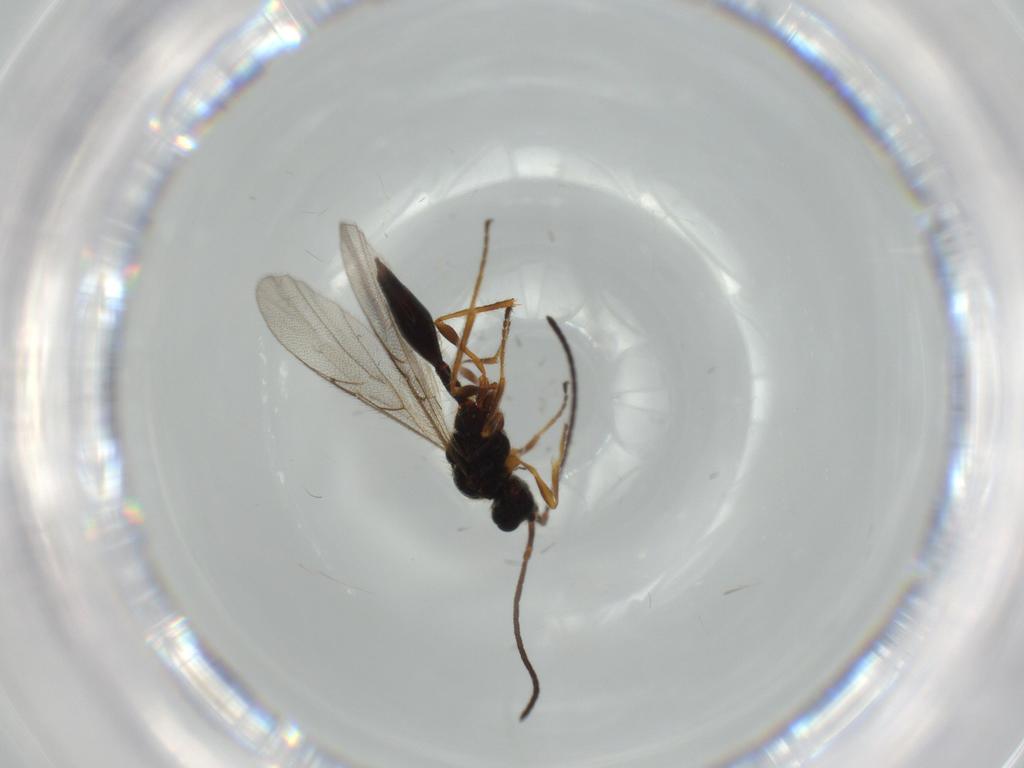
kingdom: Animalia
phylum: Arthropoda
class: Insecta
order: Hymenoptera
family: Diapriidae
